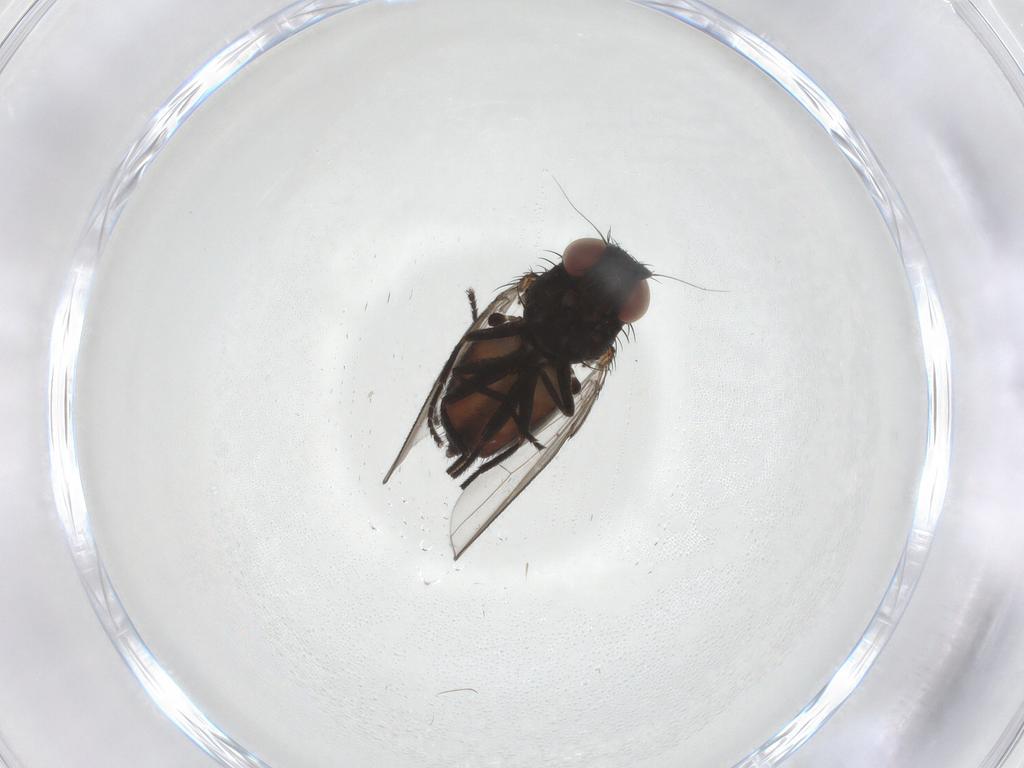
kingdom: Animalia
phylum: Arthropoda
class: Insecta
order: Diptera
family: Milichiidae
